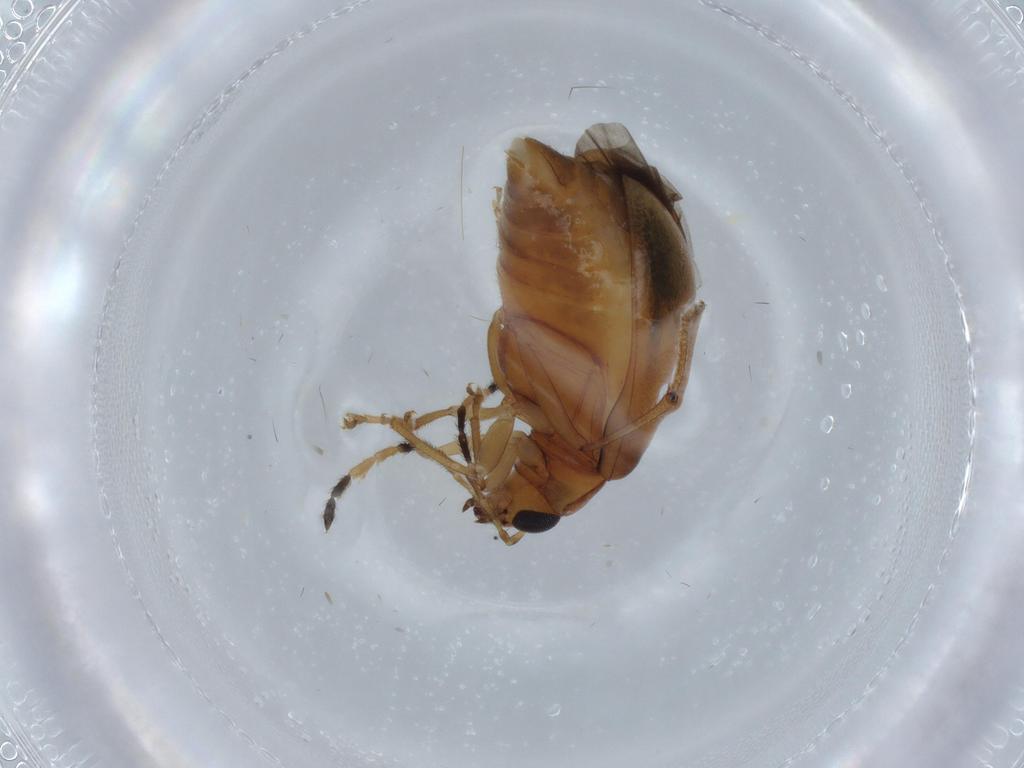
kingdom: Animalia
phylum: Arthropoda
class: Insecta
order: Coleoptera
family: Chrysomelidae
